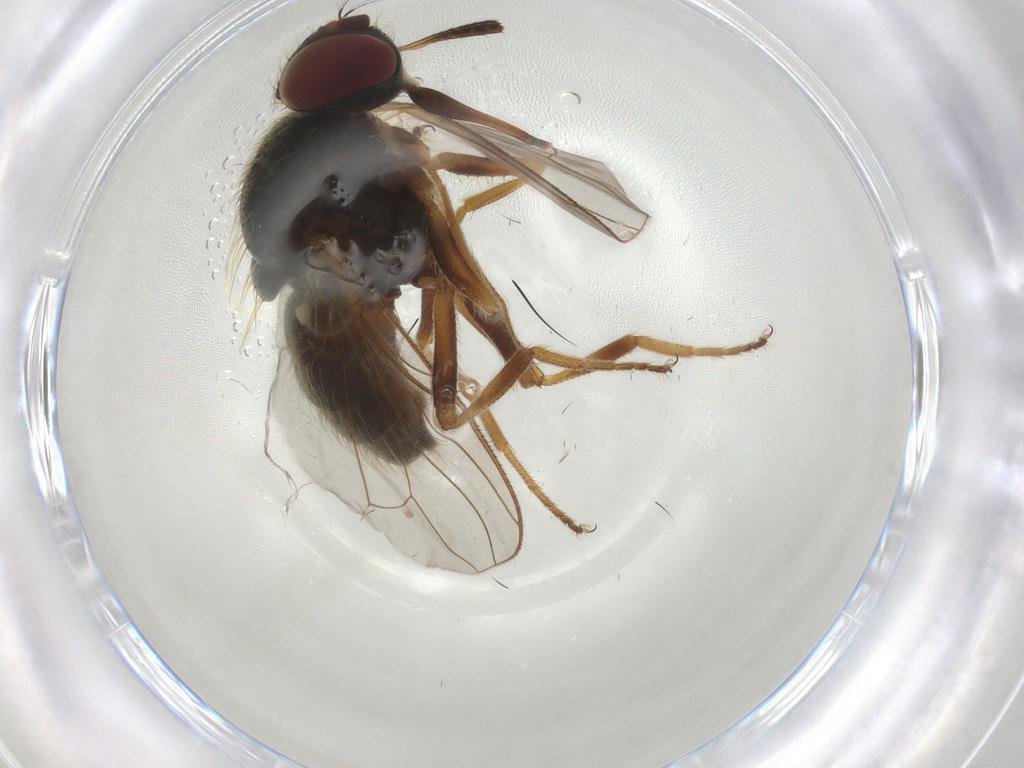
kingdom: Animalia
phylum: Arthropoda
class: Insecta
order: Diptera
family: Muscidae
